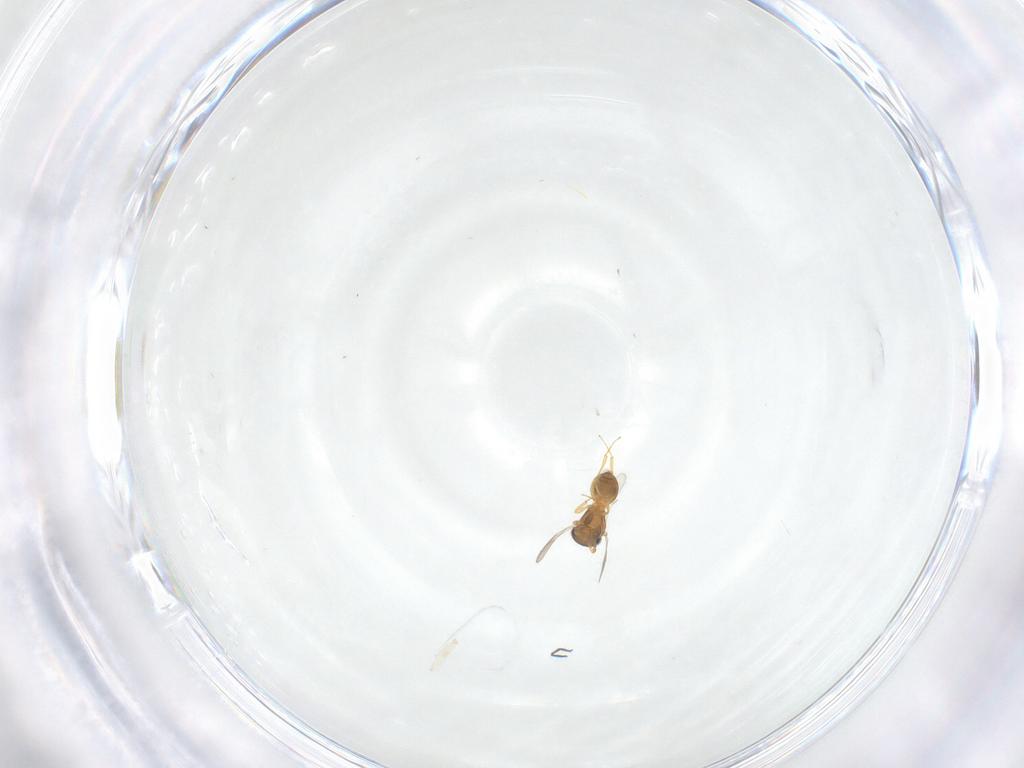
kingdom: Animalia
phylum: Arthropoda
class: Insecta
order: Hymenoptera
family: Scelionidae
